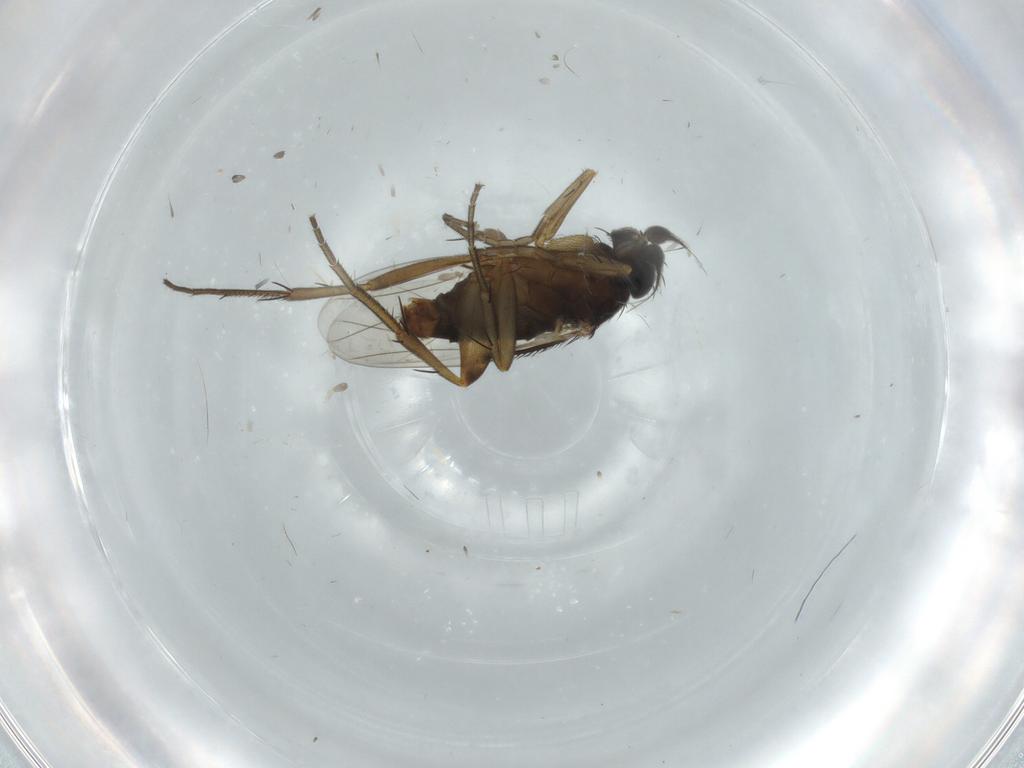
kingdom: Animalia
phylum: Arthropoda
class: Insecta
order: Diptera
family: Phoridae
